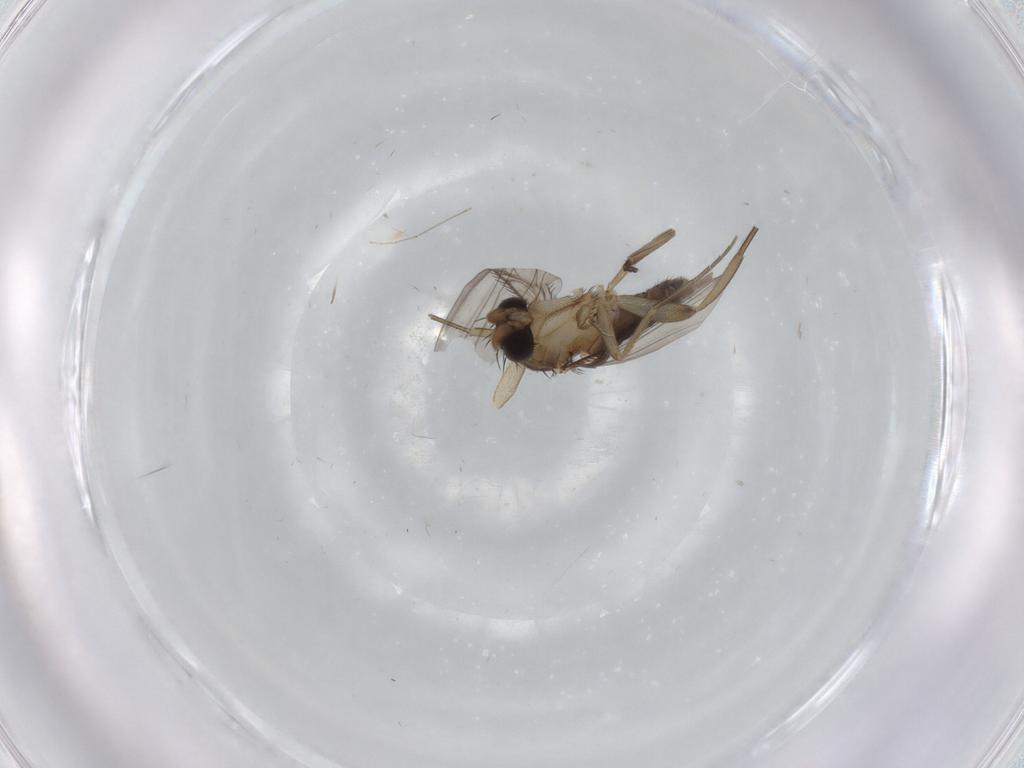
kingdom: Animalia
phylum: Arthropoda
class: Insecta
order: Diptera
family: Phoridae
